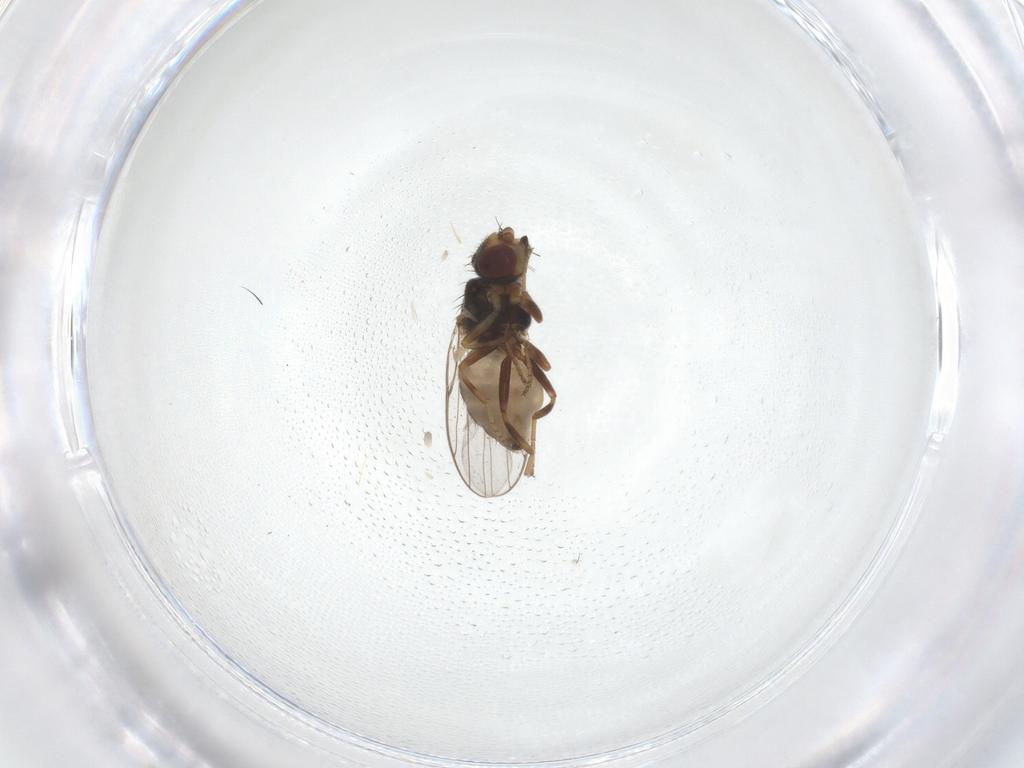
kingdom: Animalia
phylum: Arthropoda
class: Insecta
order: Diptera
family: Chloropidae
